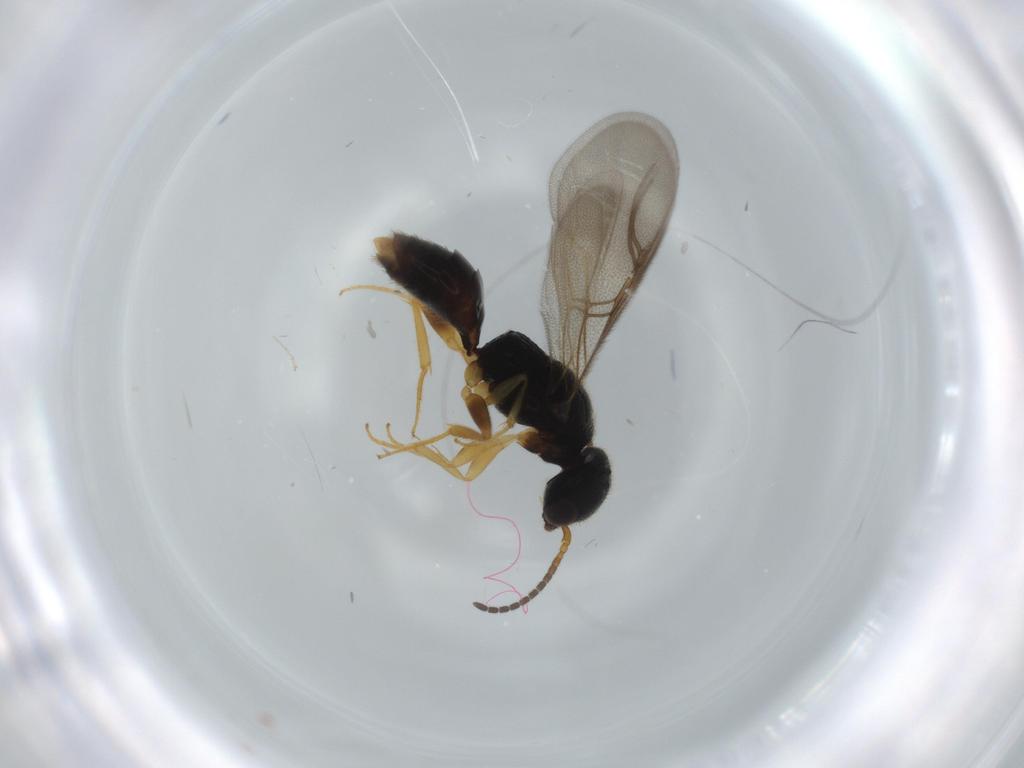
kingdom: Animalia
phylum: Arthropoda
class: Insecta
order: Hymenoptera
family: Bethylidae
